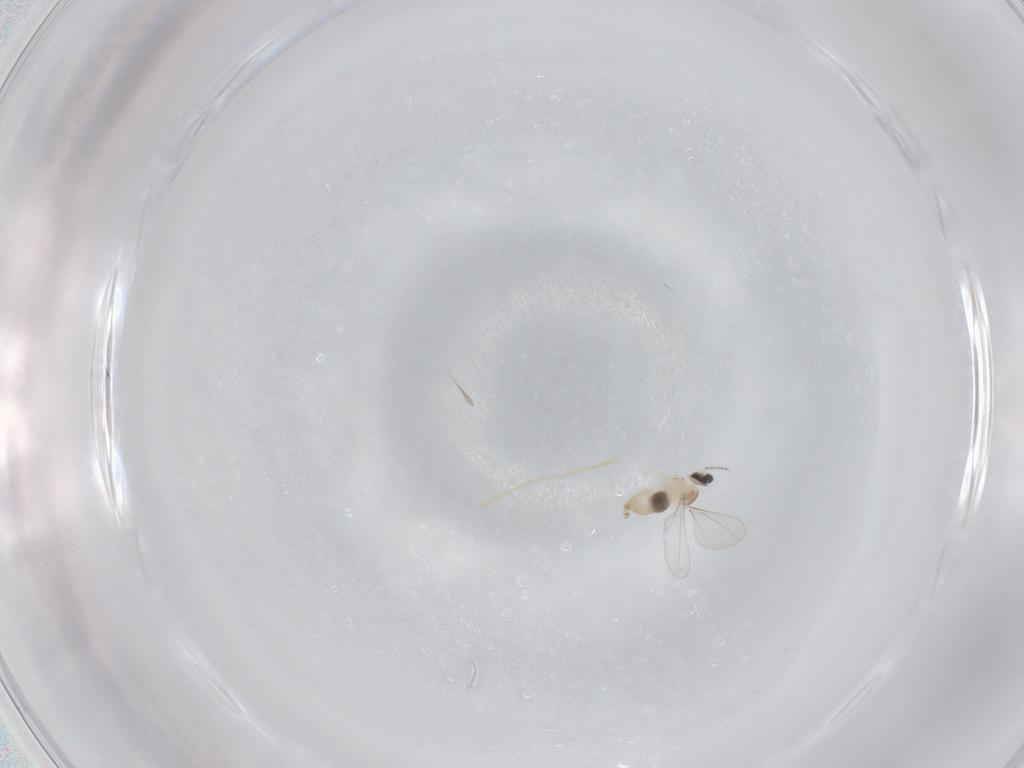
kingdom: Animalia
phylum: Arthropoda
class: Insecta
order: Diptera
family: Cecidomyiidae
